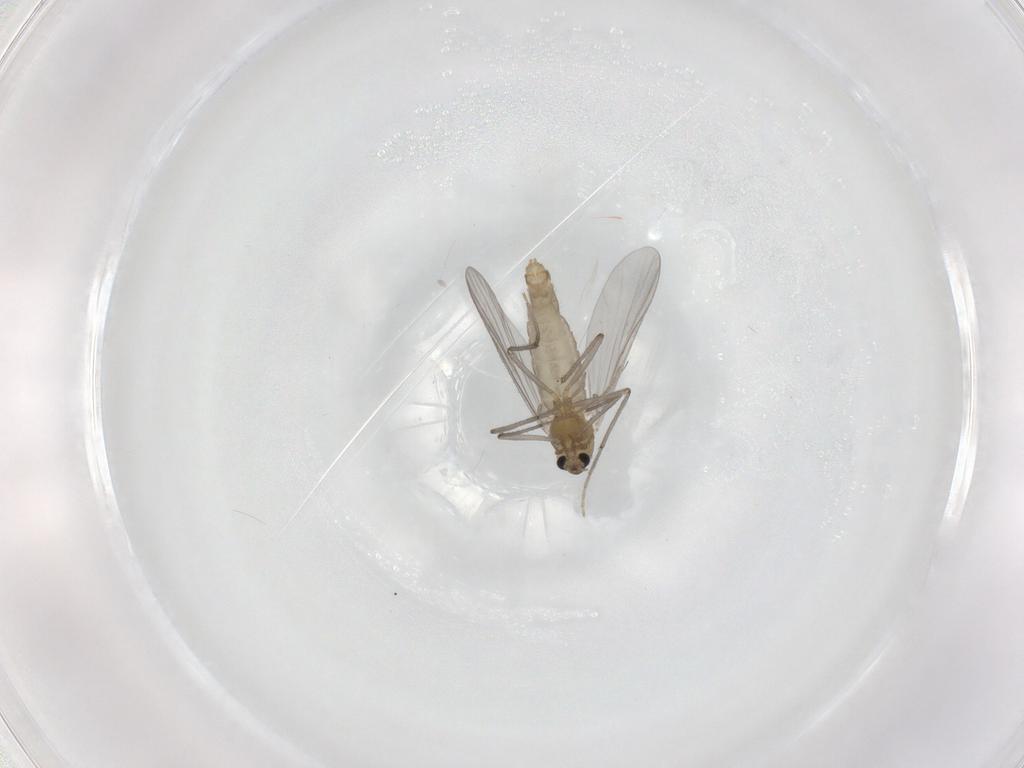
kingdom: Animalia
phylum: Arthropoda
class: Insecta
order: Diptera
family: Chironomidae
